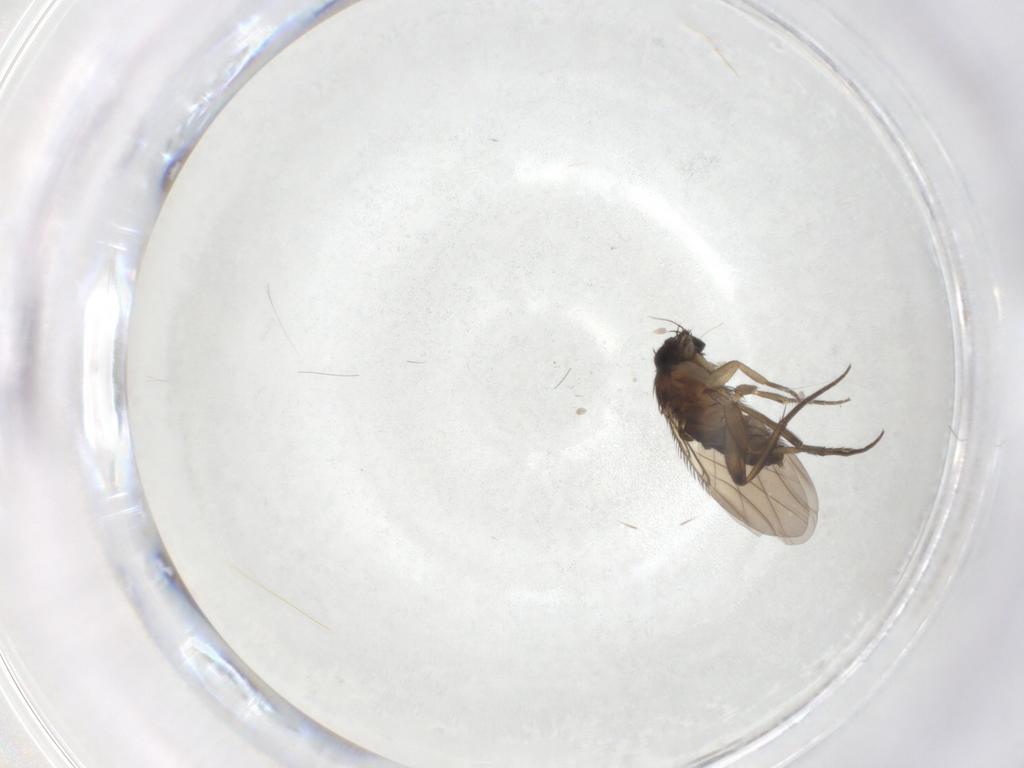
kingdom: Animalia
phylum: Arthropoda
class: Insecta
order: Diptera
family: Phoridae
